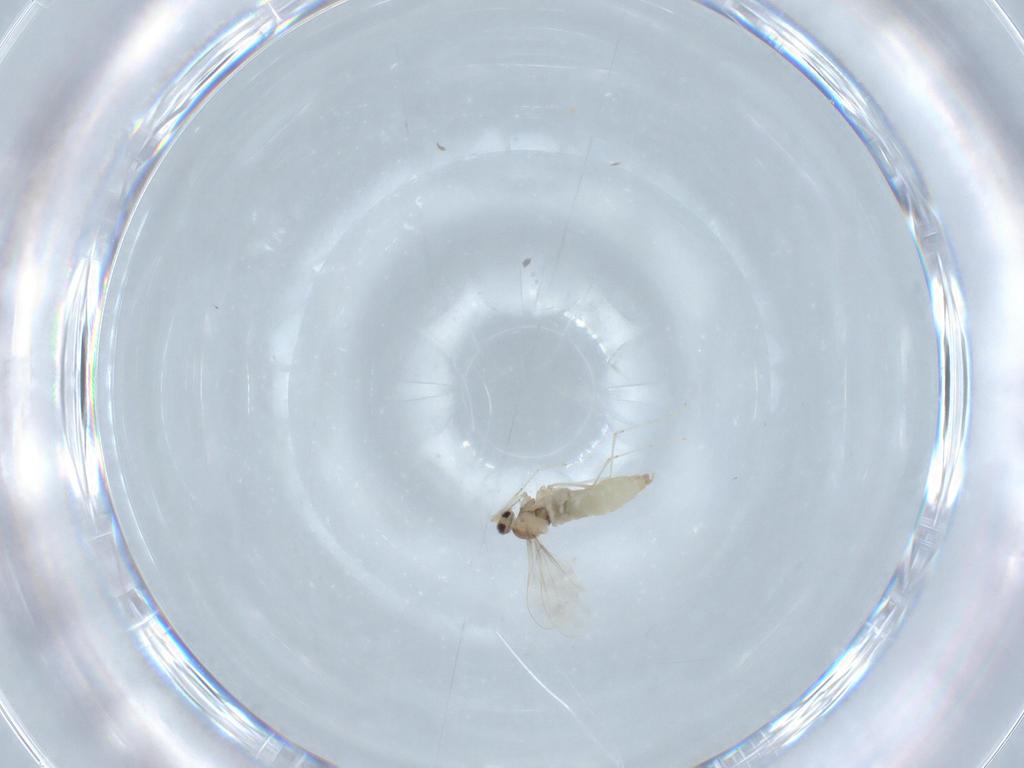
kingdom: Animalia
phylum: Arthropoda
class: Insecta
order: Diptera
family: Cecidomyiidae
